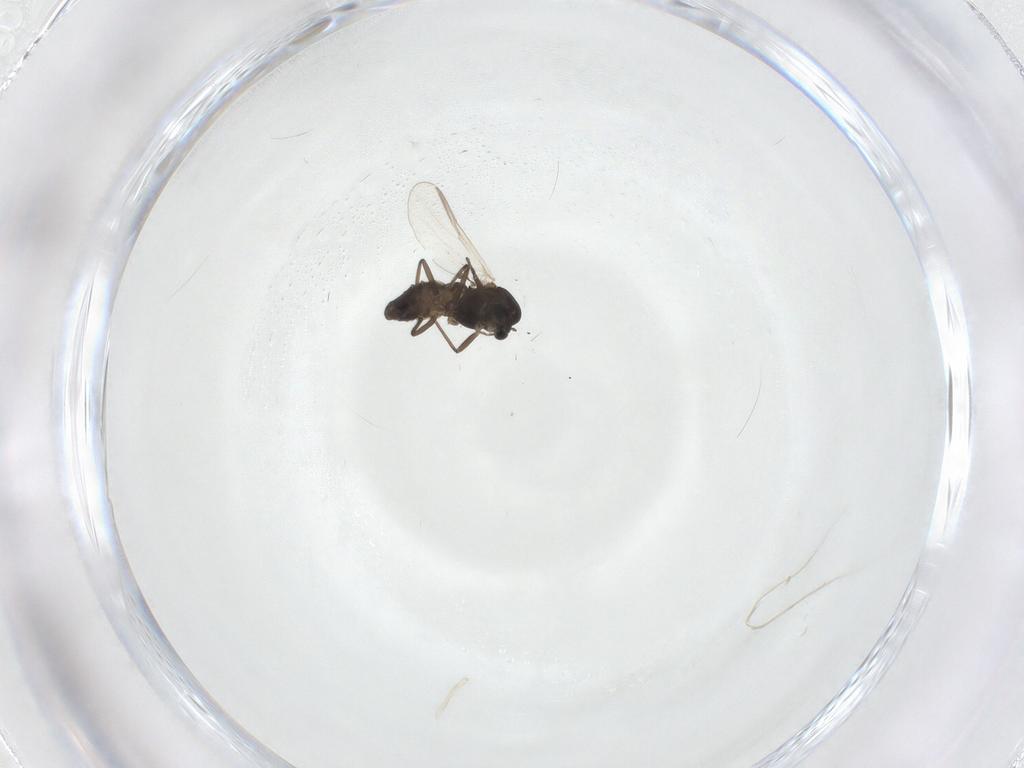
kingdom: Animalia
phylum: Arthropoda
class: Insecta
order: Diptera
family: Chironomidae
